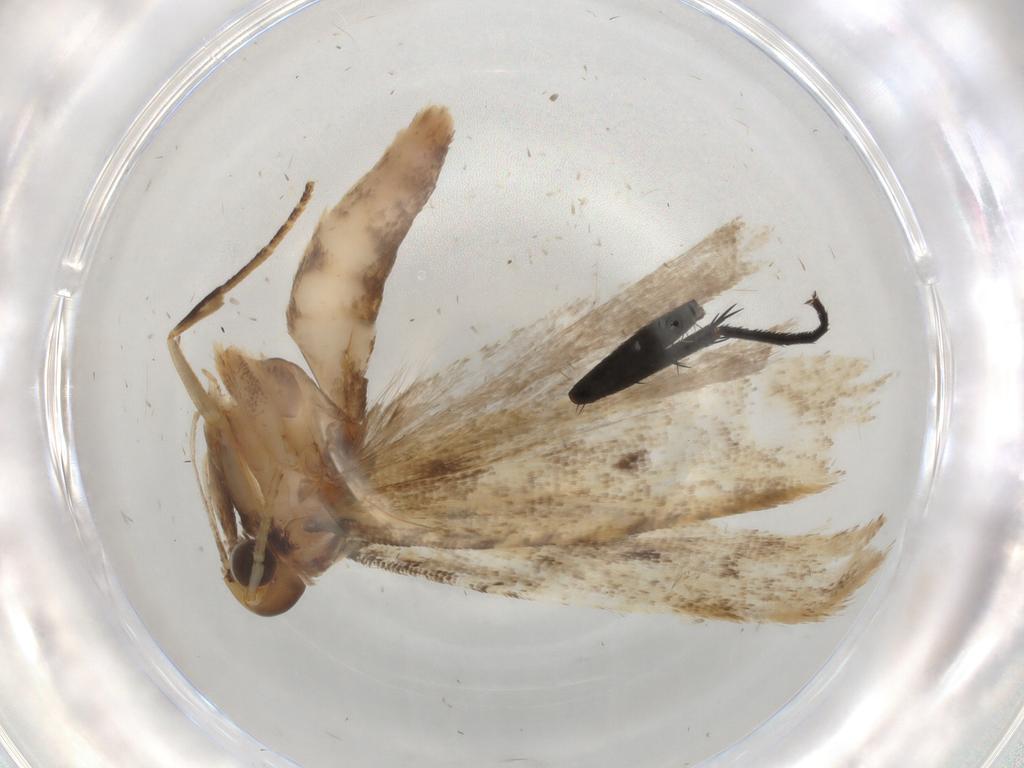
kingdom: Animalia
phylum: Arthropoda
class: Insecta
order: Lepidoptera
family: Gelechiidae
